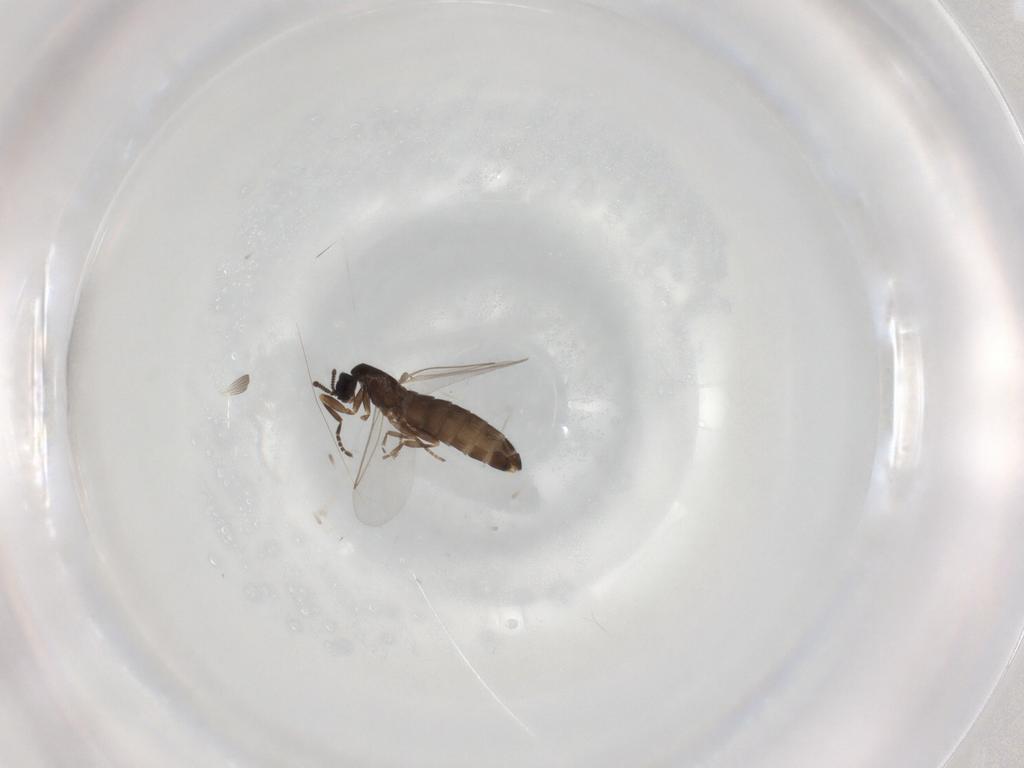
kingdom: Animalia
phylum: Arthropoda
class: Insecta
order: Diptera
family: Scatopsidae
